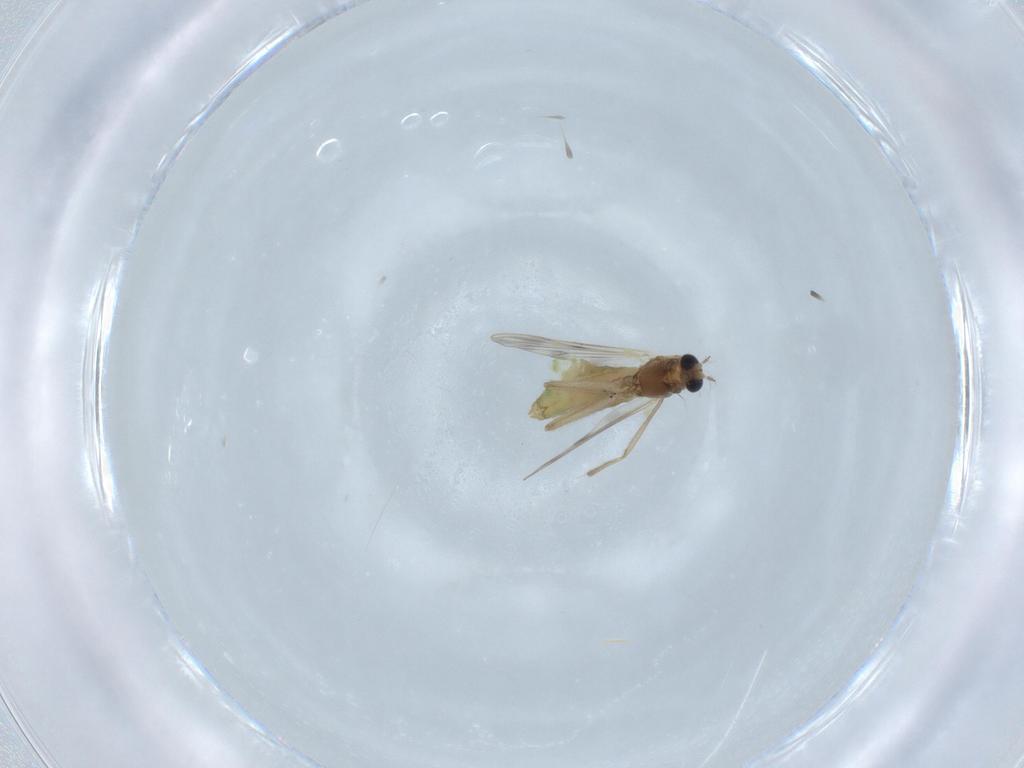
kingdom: Animalia
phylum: Arthropoda
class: Insecta
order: Diptera
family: Chironomidae
